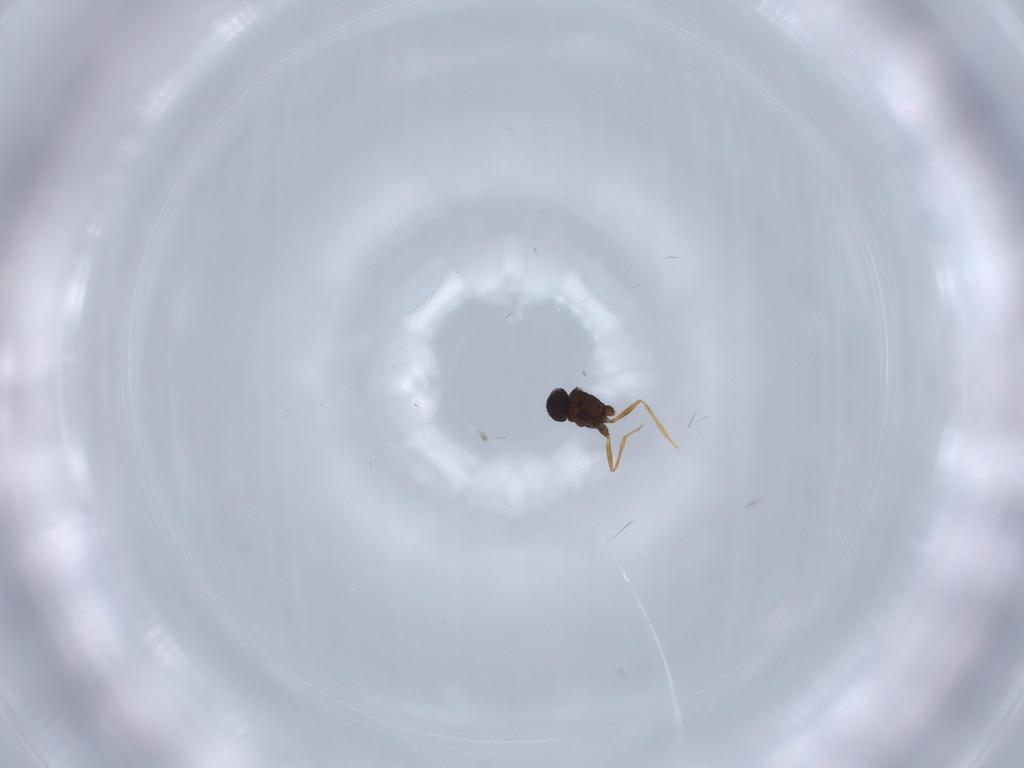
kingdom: Animalia
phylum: Arthropoda
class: Insecta
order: Hymenoptera
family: Mymaridae
